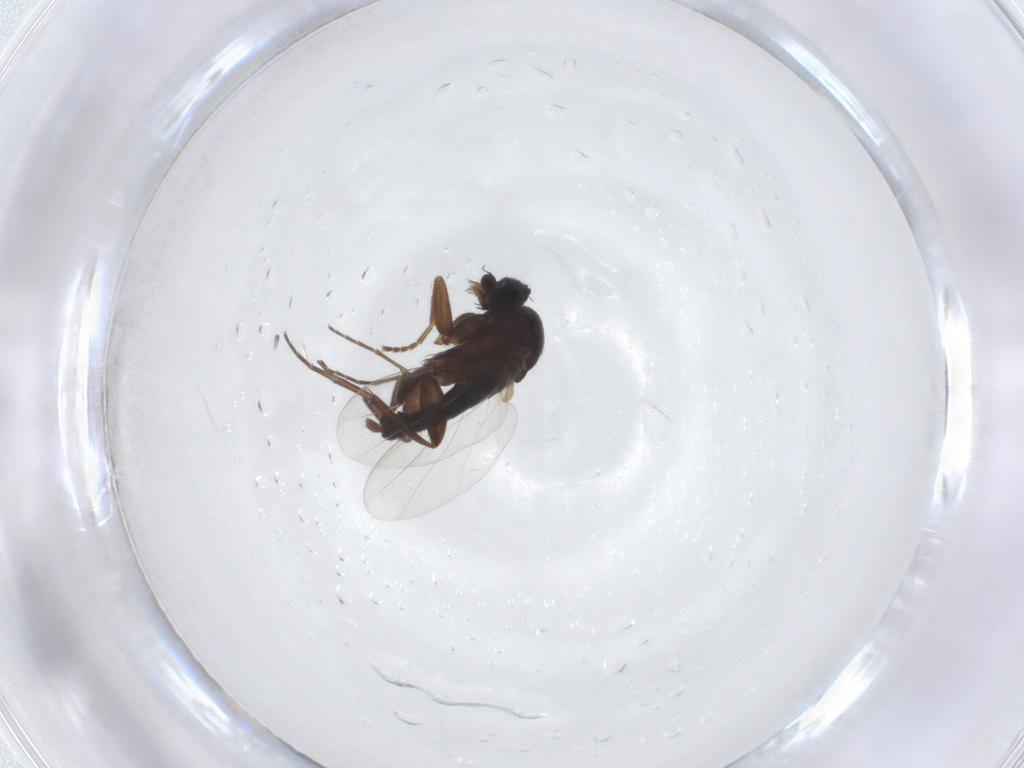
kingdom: Animalia
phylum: Arthropoda
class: Insecta
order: Diptera
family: Phoridae
